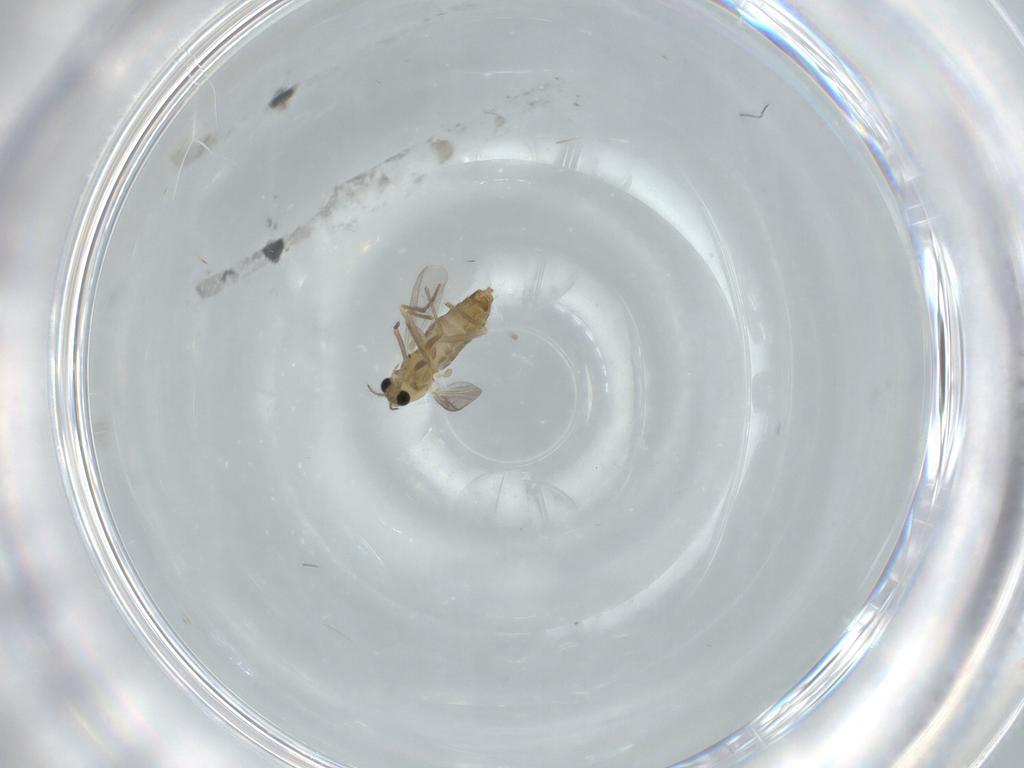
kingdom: Animalia
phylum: Arthropoda
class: Insecta
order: Diptera
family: Chironomidae
